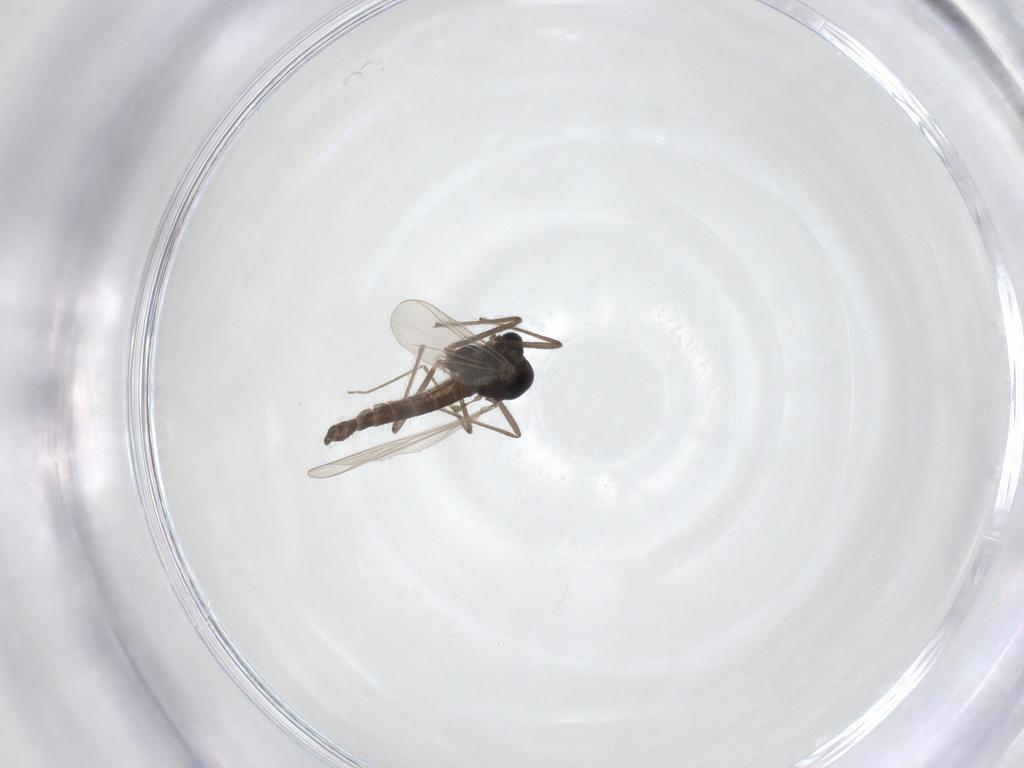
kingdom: Animalia
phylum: Arthropoda
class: Insecta
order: Diptera
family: Chironomidae
